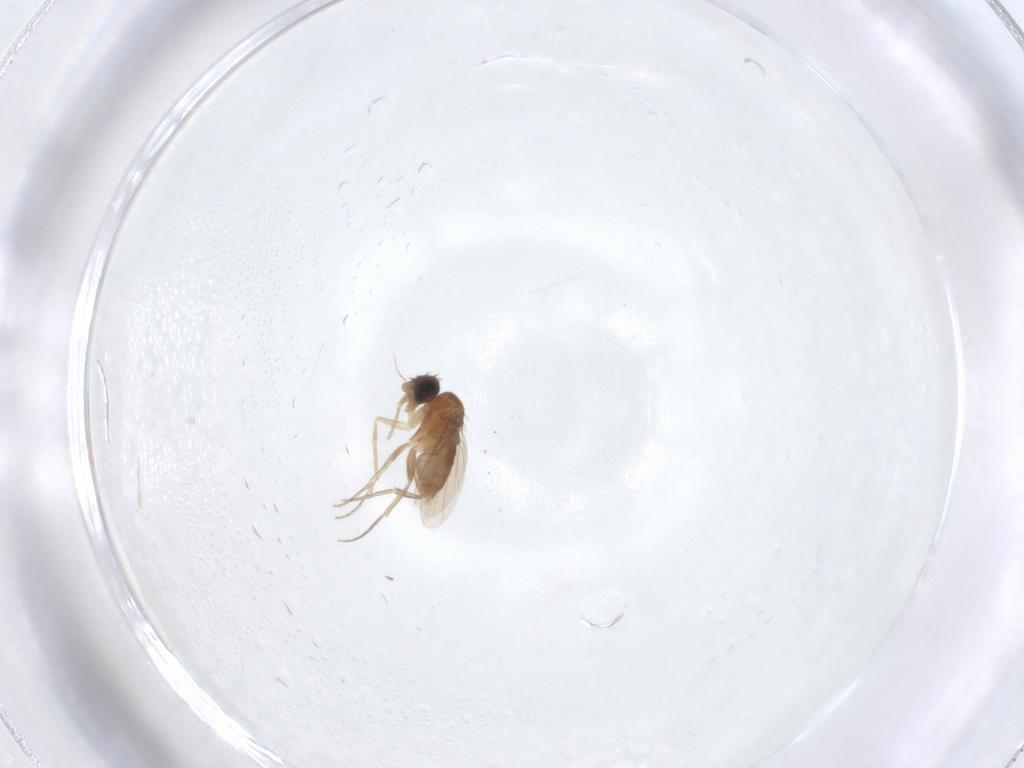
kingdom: Animalia
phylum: Arthropoda
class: Insecta
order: Diptera
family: Phoridae
